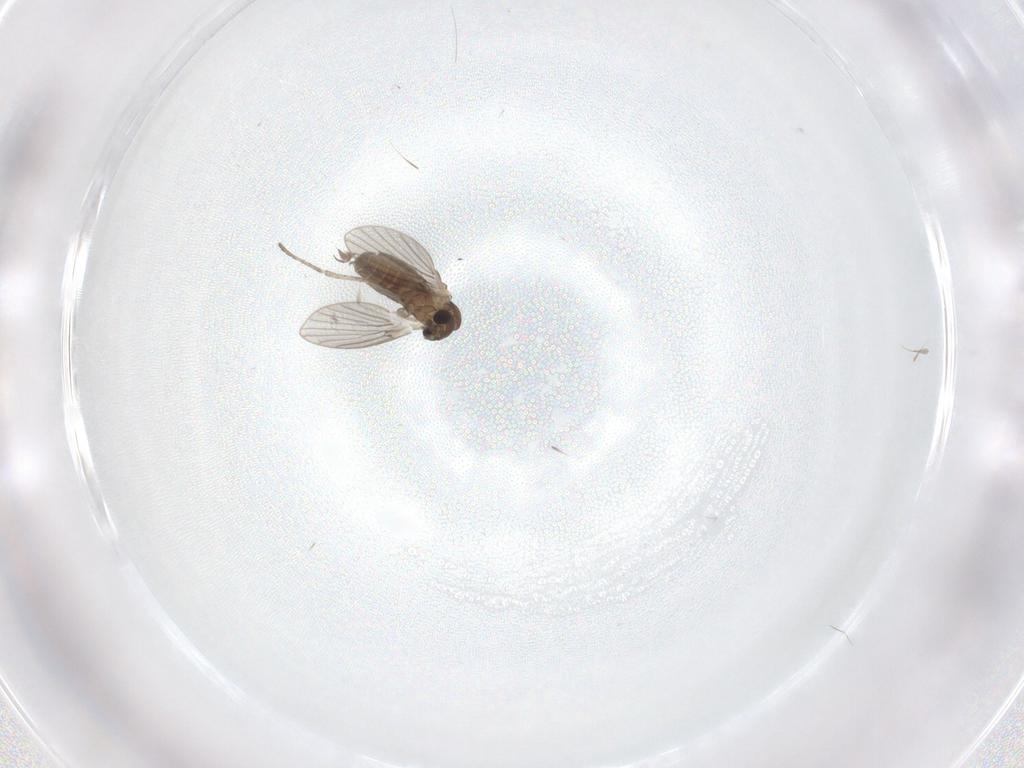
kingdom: Animalia
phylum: Arthropoda
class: Insecta
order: Diptera
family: Psychodidae
